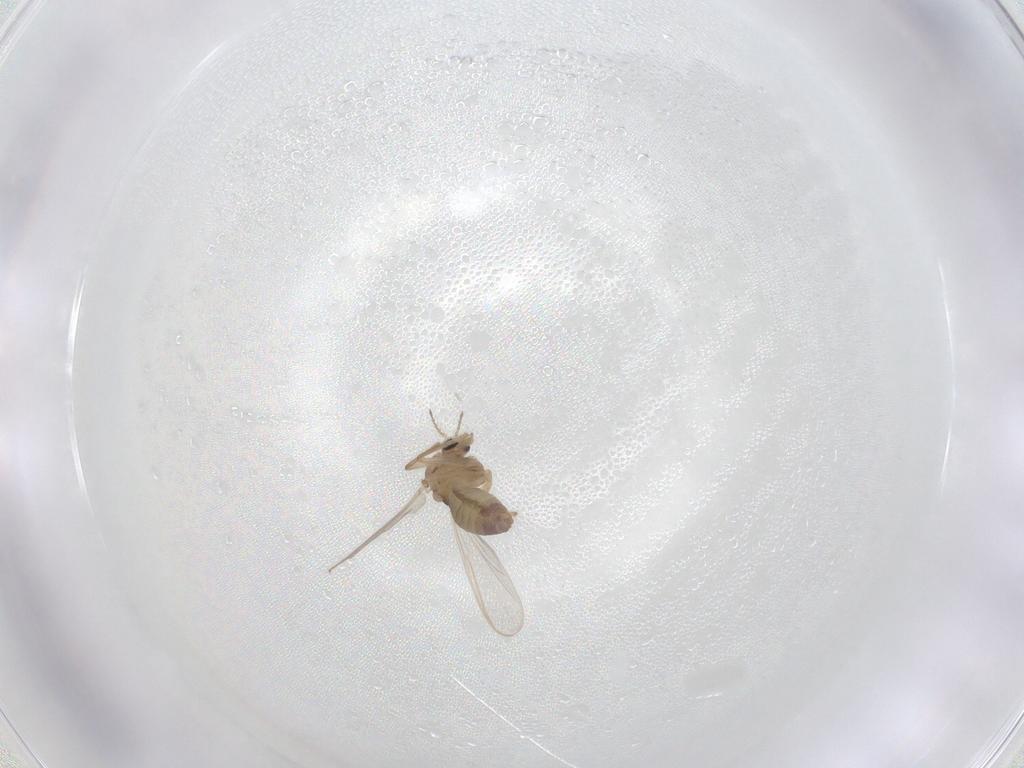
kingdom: Animalia
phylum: Arthropoda
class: Insecta
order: Diptera
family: Chironomidae
